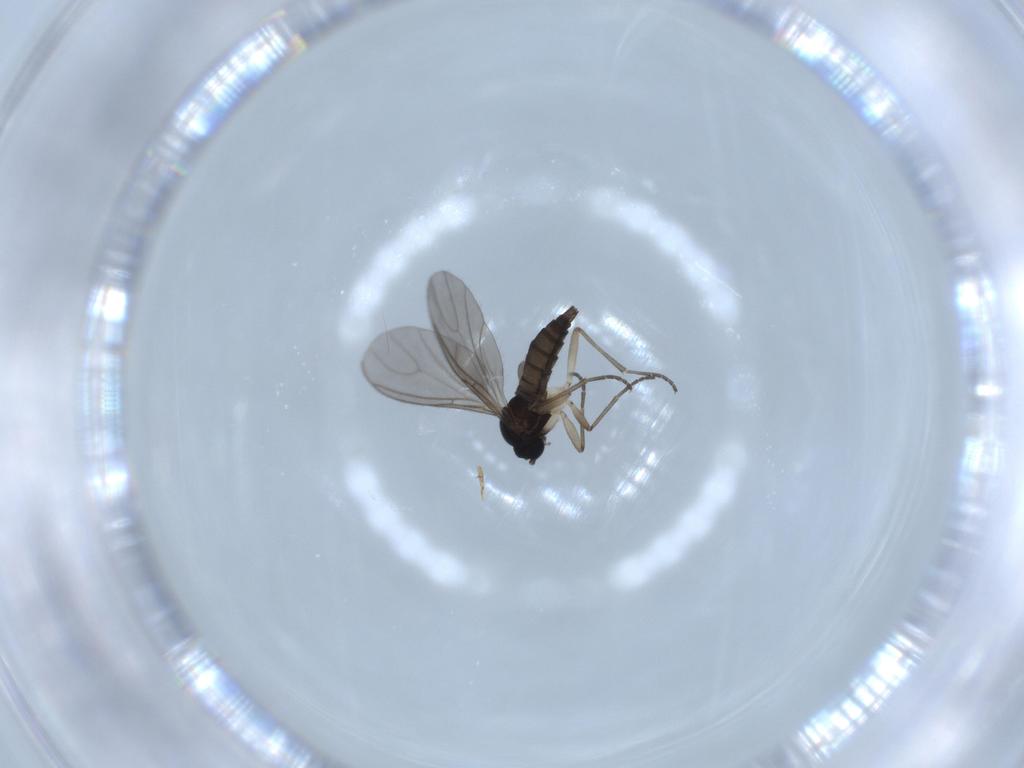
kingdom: Animalia
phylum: Arthropoda
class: Insecta
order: Diptera
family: Sciaridae
